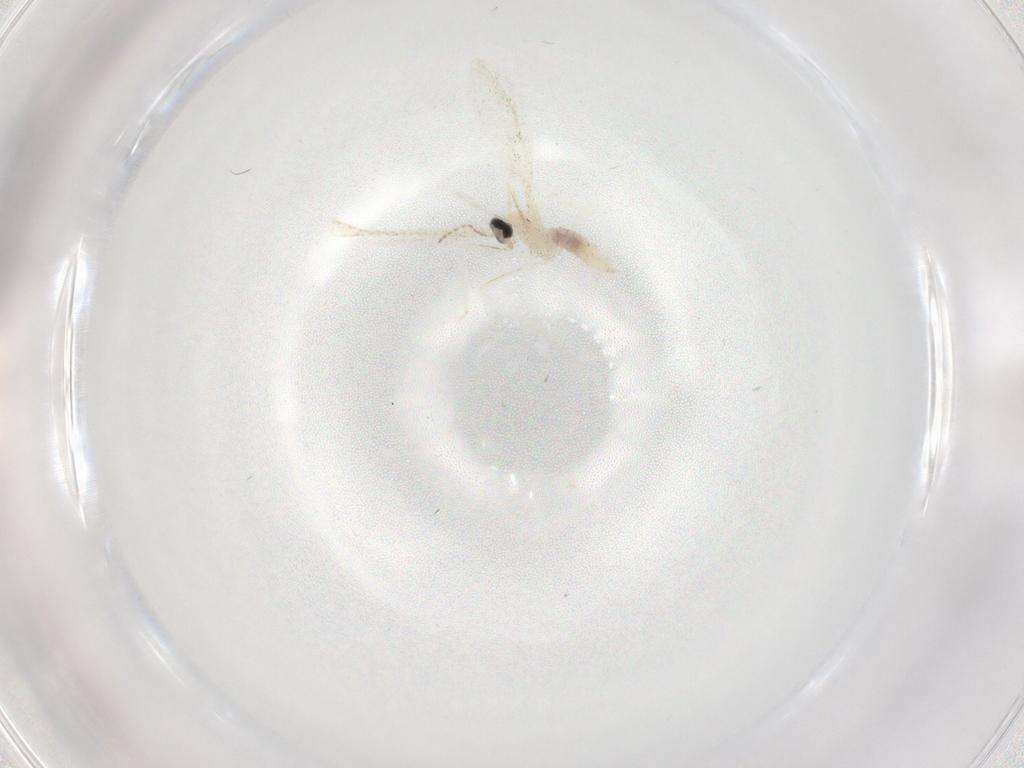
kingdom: Animalia
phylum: Arthropoda
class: Insecta
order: Diptera
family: Cecidomyiidae
